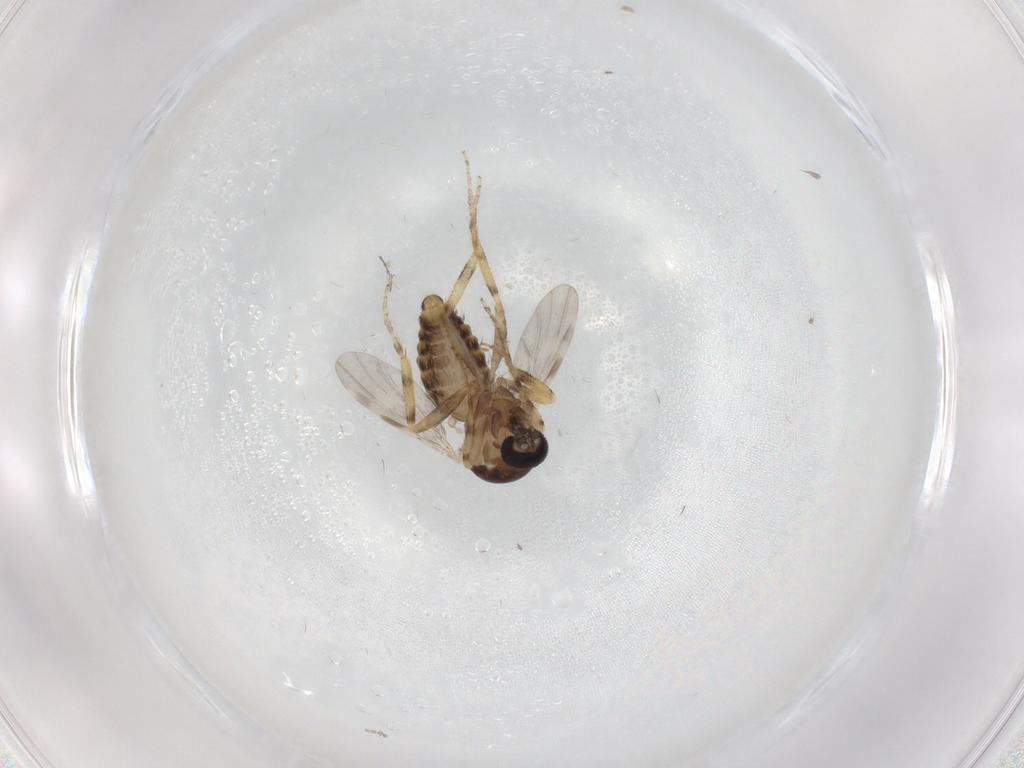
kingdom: Animalia
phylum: Arthropoda
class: Insecta
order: Diptera
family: Ceratopogonidae
